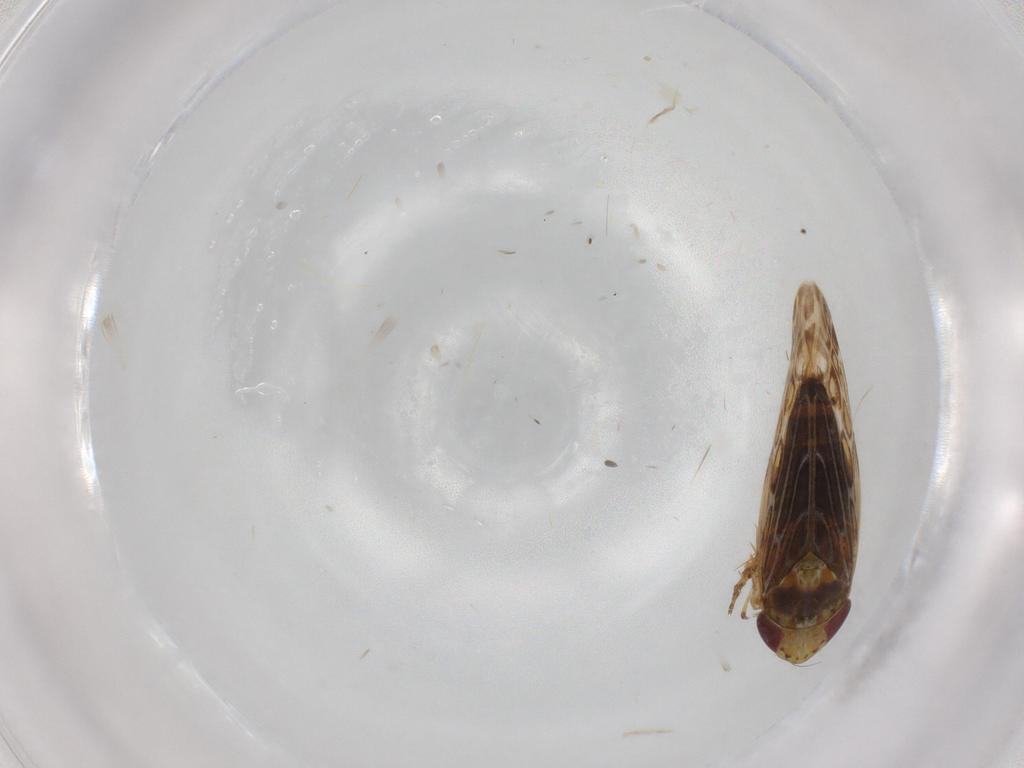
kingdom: Animalia
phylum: Arthropoda
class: Insecta
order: Hemiptera
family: Cicadellidae
